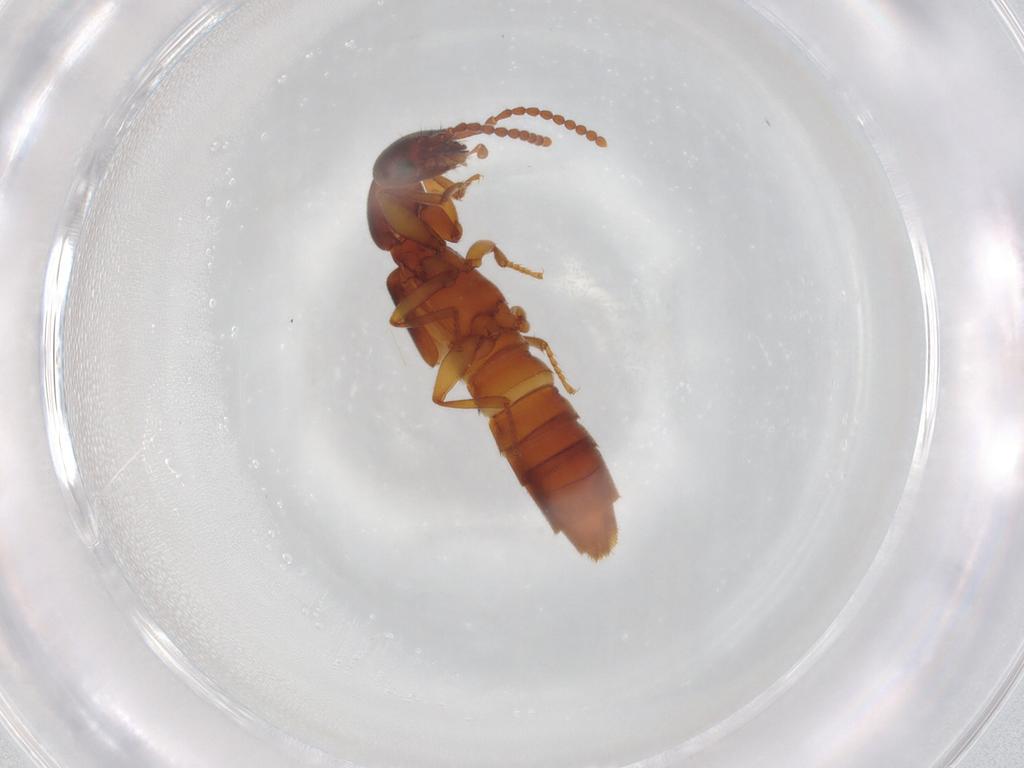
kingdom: Animalia
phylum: Arthropoda
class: Insecta
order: Coleoptera
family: Staphylinidae
